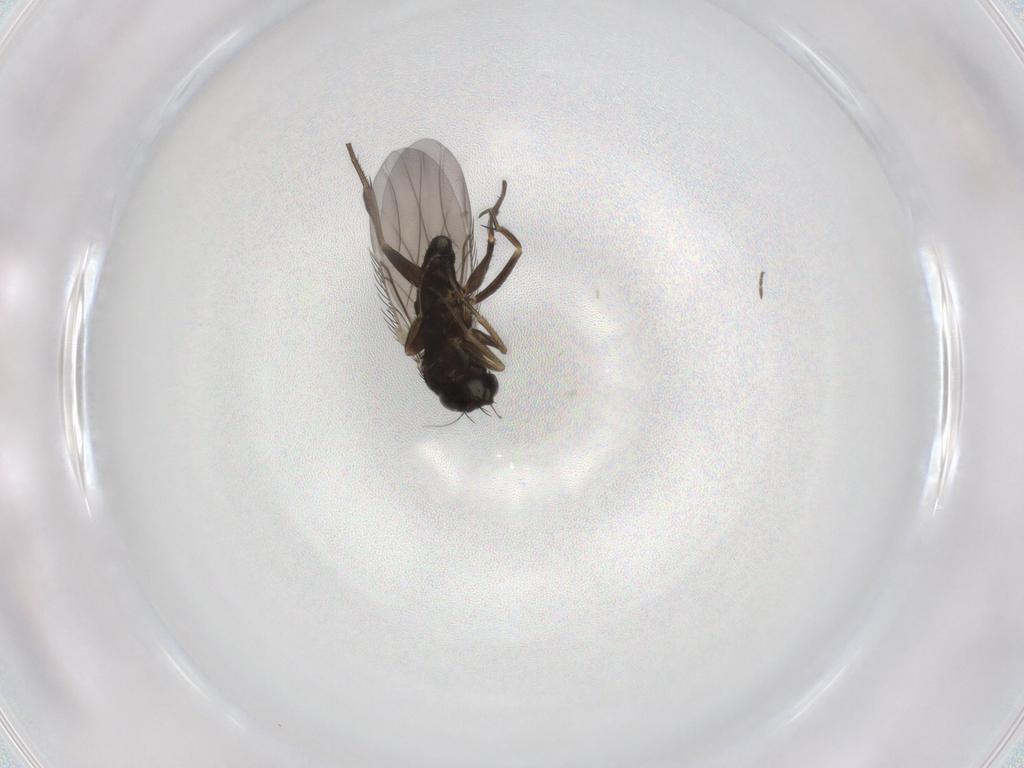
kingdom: Animalia
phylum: Arthropoda
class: Insecta
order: Diptera
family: Phoridae
